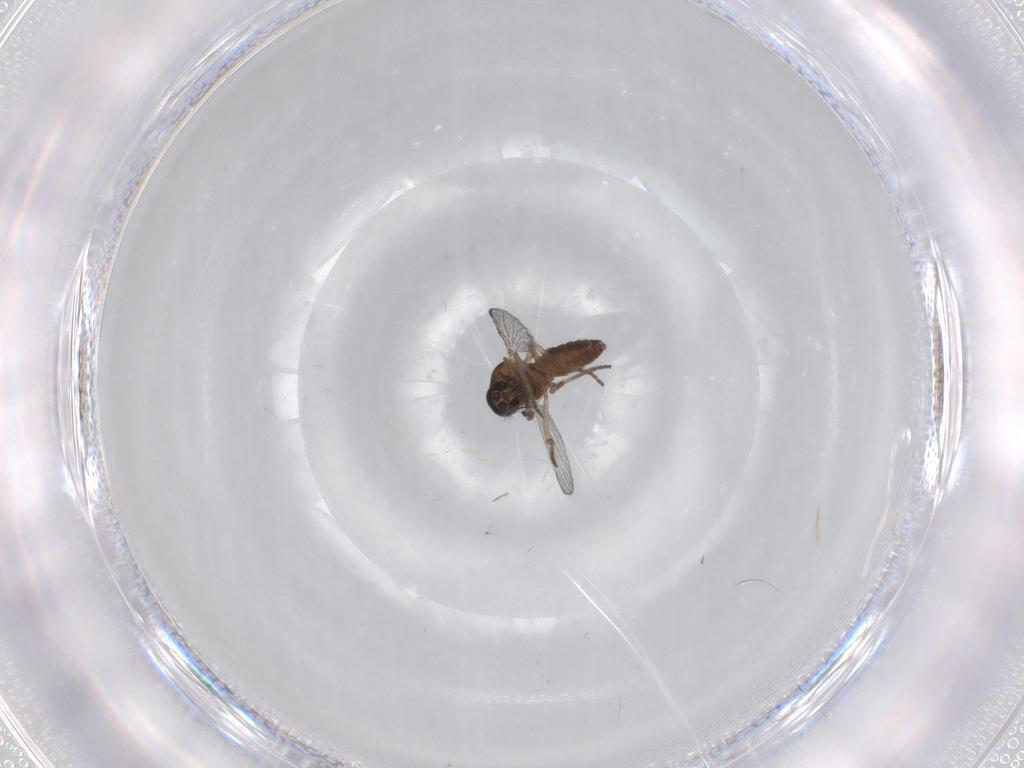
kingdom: Animalia
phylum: Arthropoda
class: Insecta
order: Diptera
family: Ceratopogonidae
